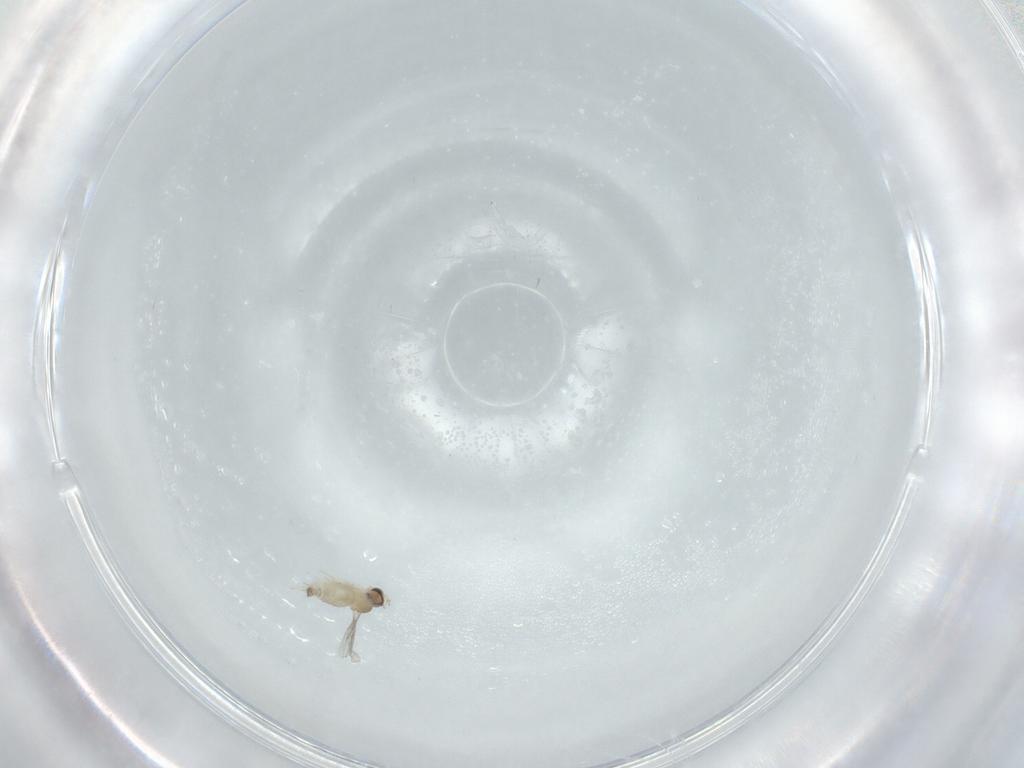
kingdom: Animalia
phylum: Arthropoda
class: Insecta
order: Diptera
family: Cecidomyiidae
